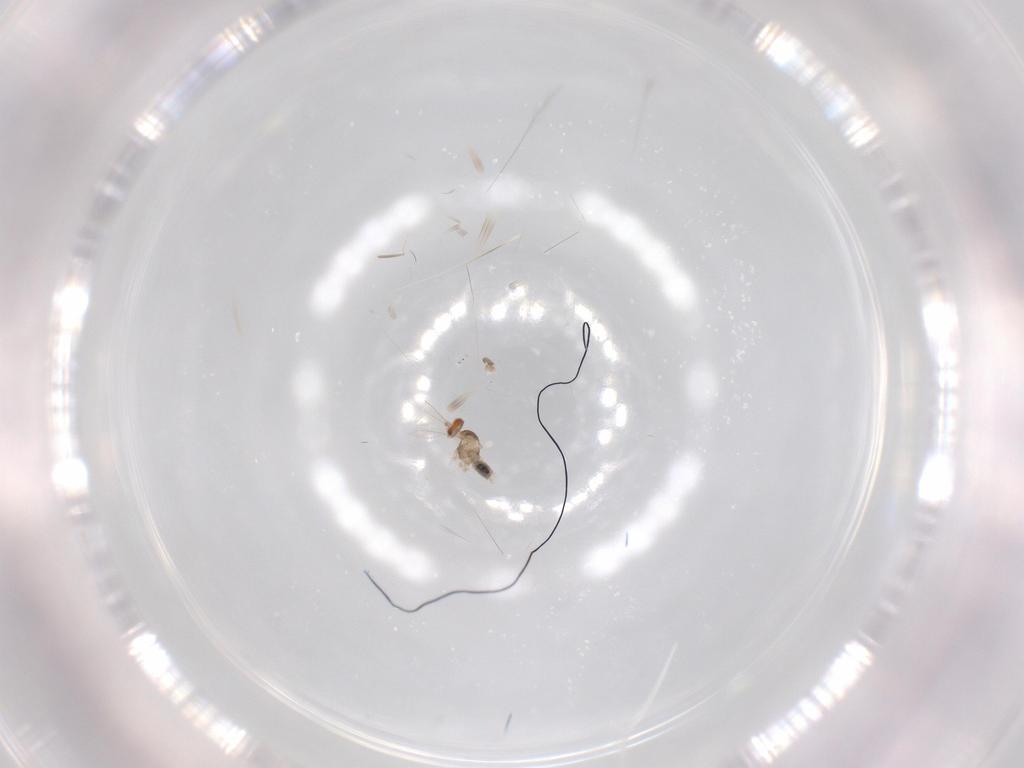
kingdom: Animalia
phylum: Arthropoda
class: Insecta
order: Diptera
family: Chironomidae
